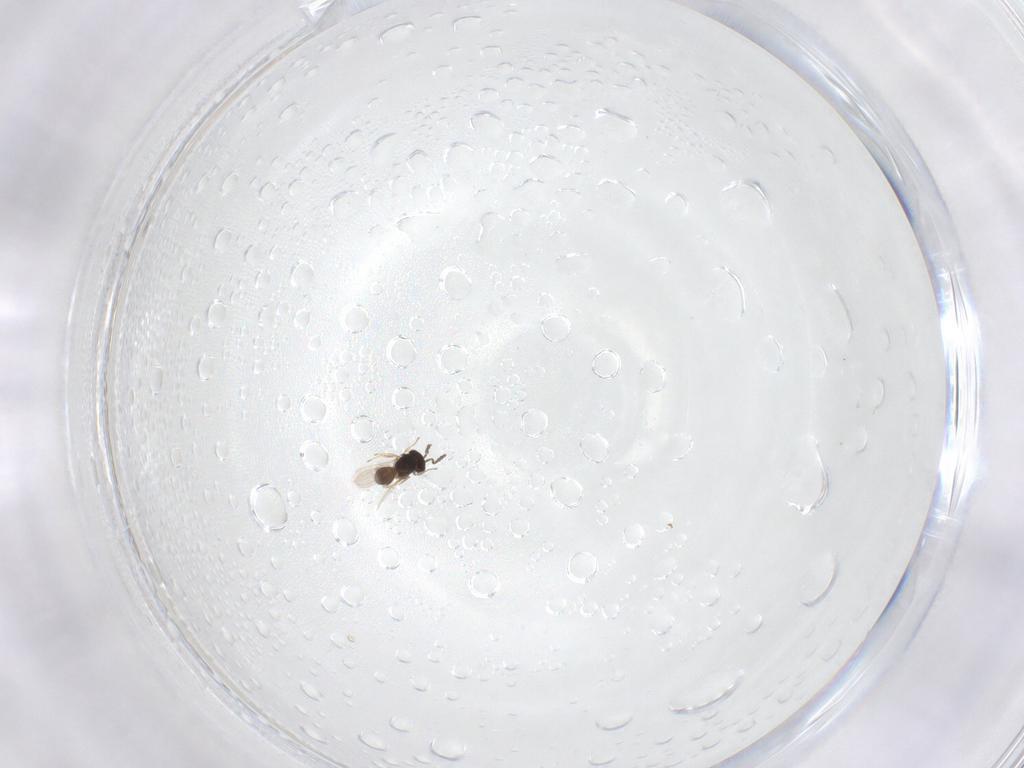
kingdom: Animalia
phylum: Arthropoda
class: Insecta
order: Hymenoptera
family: Scelionidae
